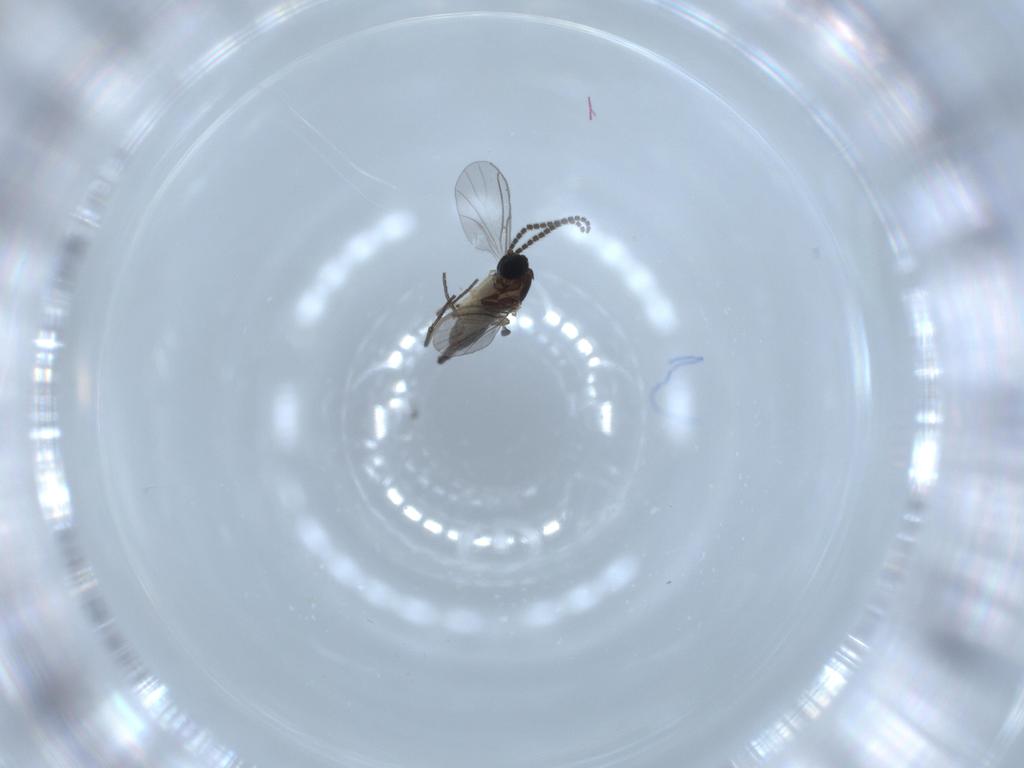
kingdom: Animalia
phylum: Arthropoda
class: Insecta
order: Diptera
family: Sciaridae
